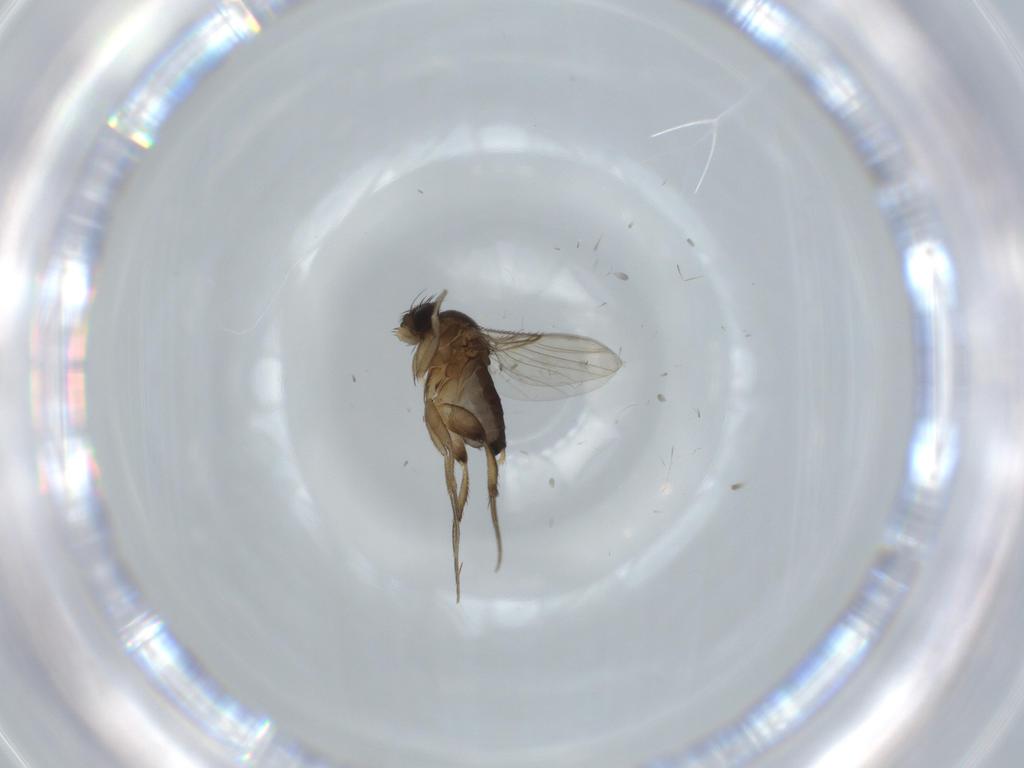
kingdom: Animalia
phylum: Arthropoda
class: Insecta
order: Diptera
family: Phoridae
